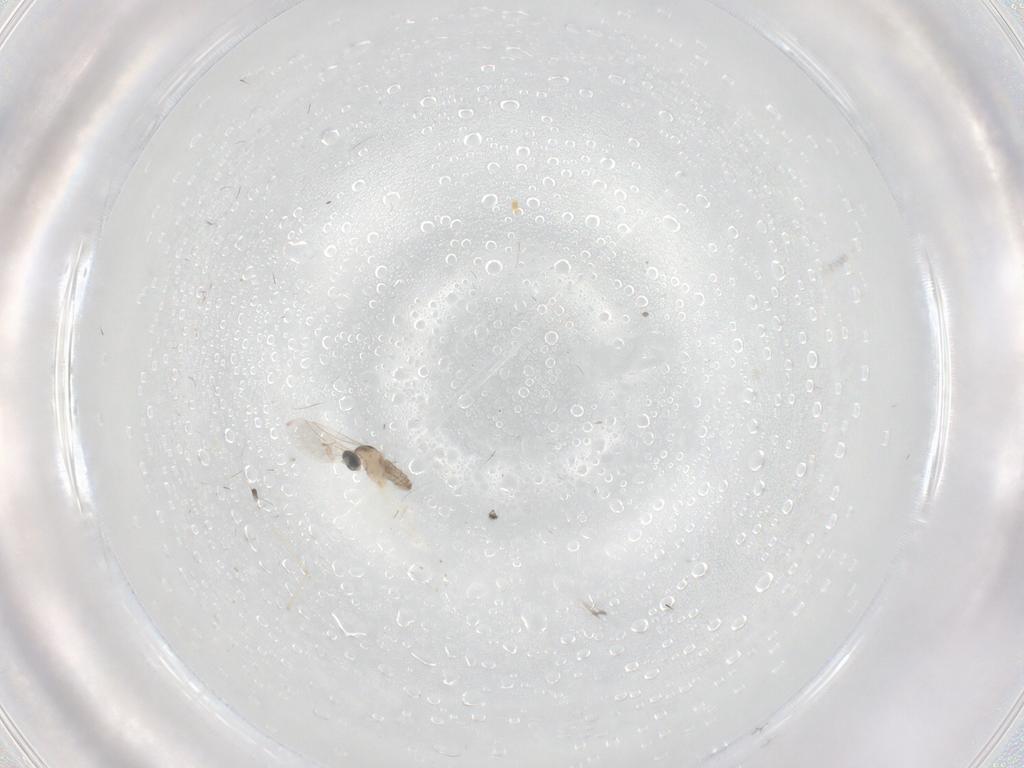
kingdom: Animalia
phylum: Arthropoda
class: Insecta
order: Diptera
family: Cecidomyiidae
